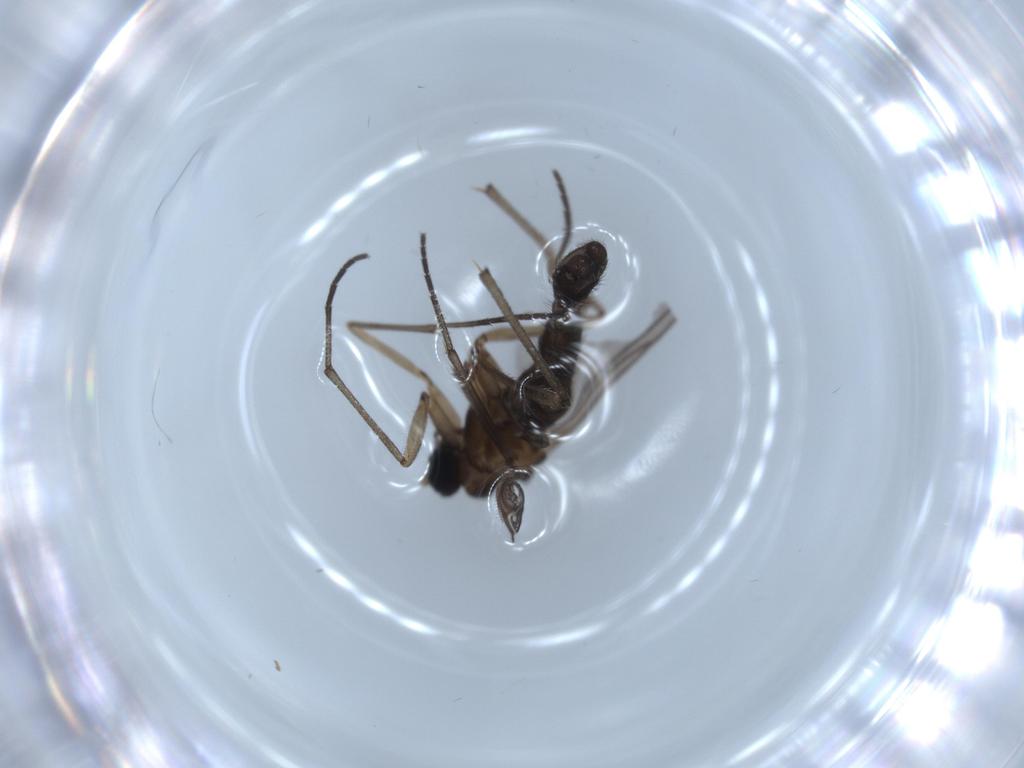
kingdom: Animalia
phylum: Arthropoda
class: Insecta
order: Diptera
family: Sciaridae
